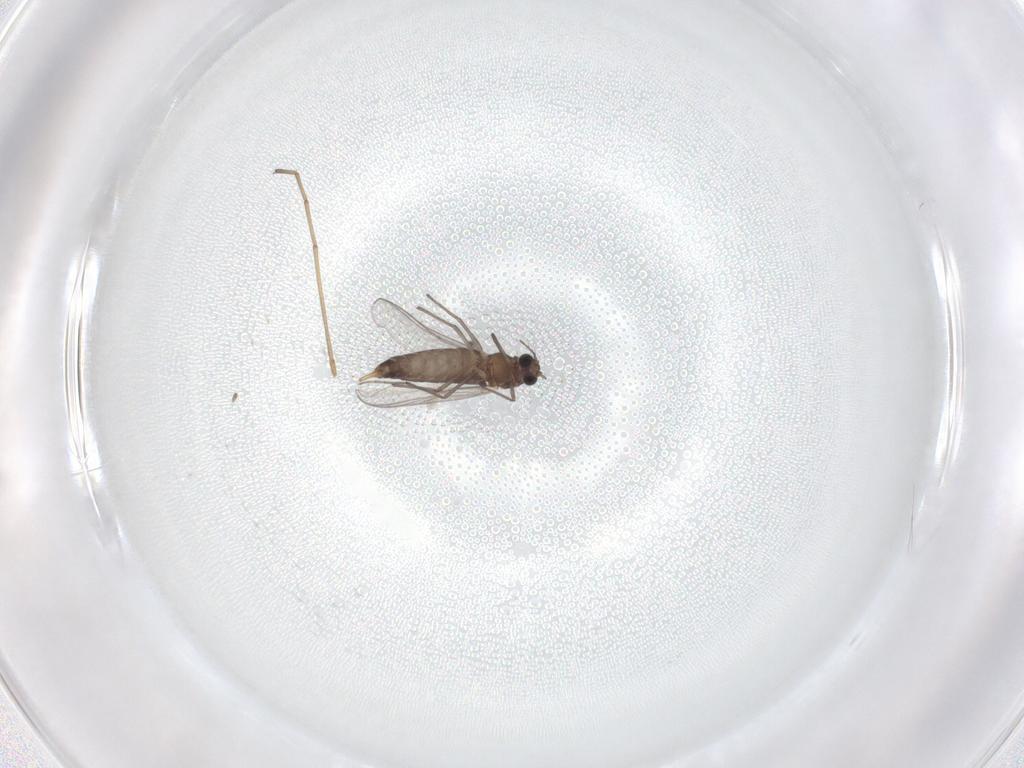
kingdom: Animalia
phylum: Arthropoda
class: Insecta
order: Diptera
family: Chironomidae
